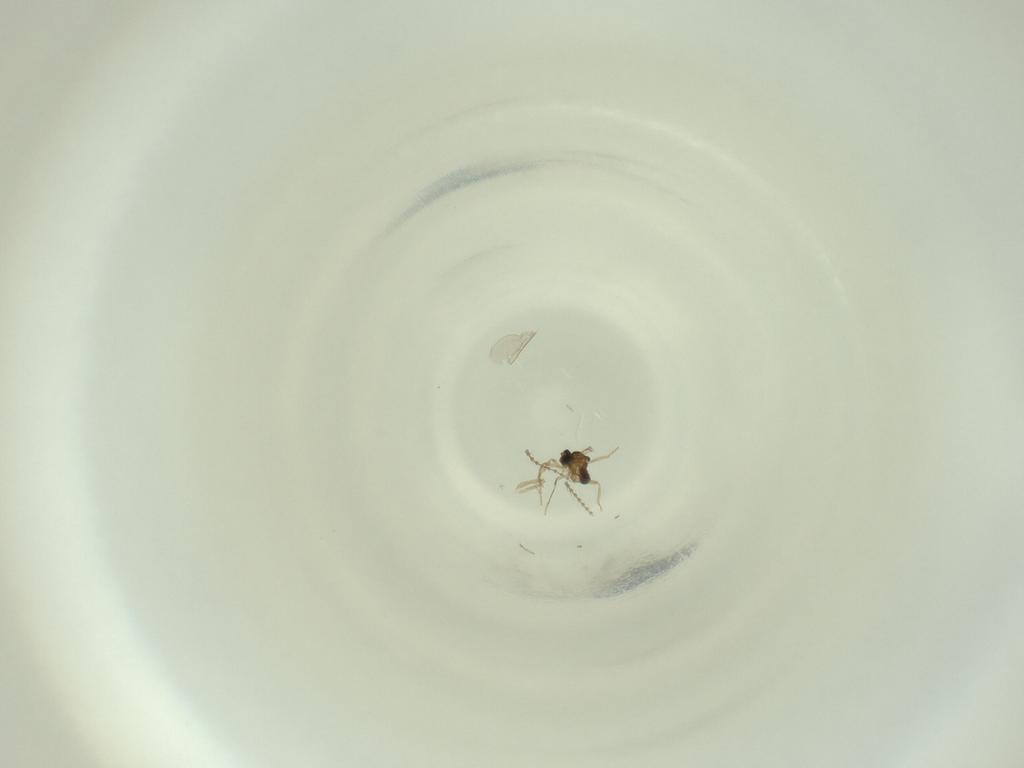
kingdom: Animalia
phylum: Arthropoda
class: Insecta
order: Diptera
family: Cecidomyiidae
